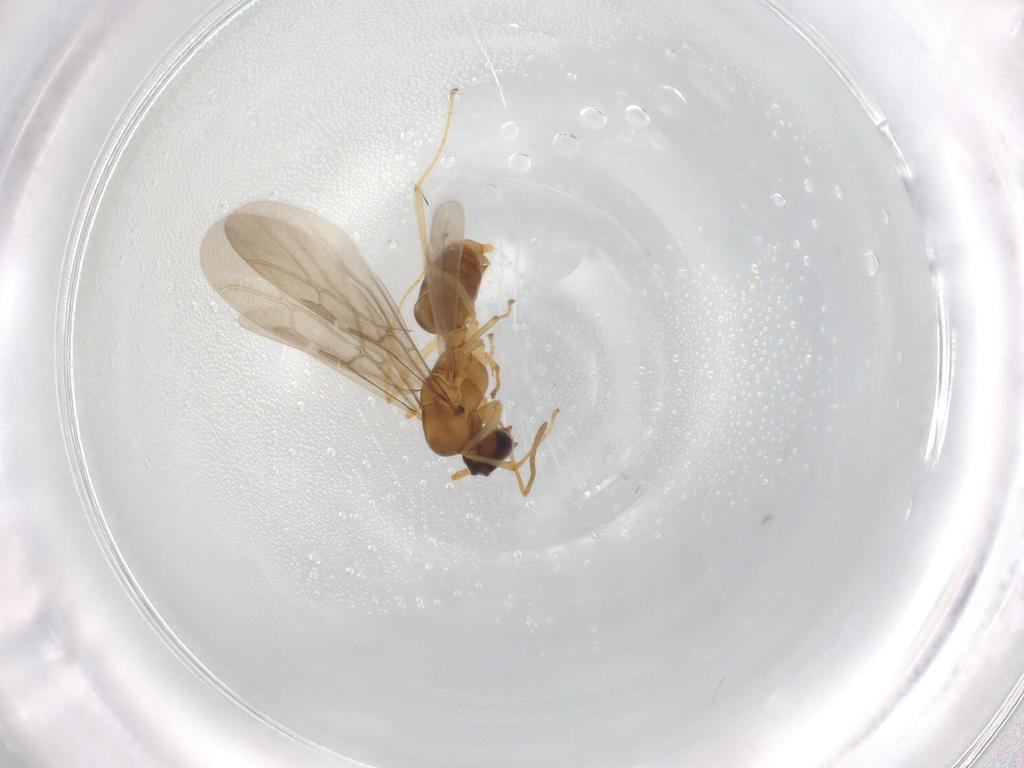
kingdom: Animalia
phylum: Arthropoda
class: Insecta
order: Hymenoptera
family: Formicidae
